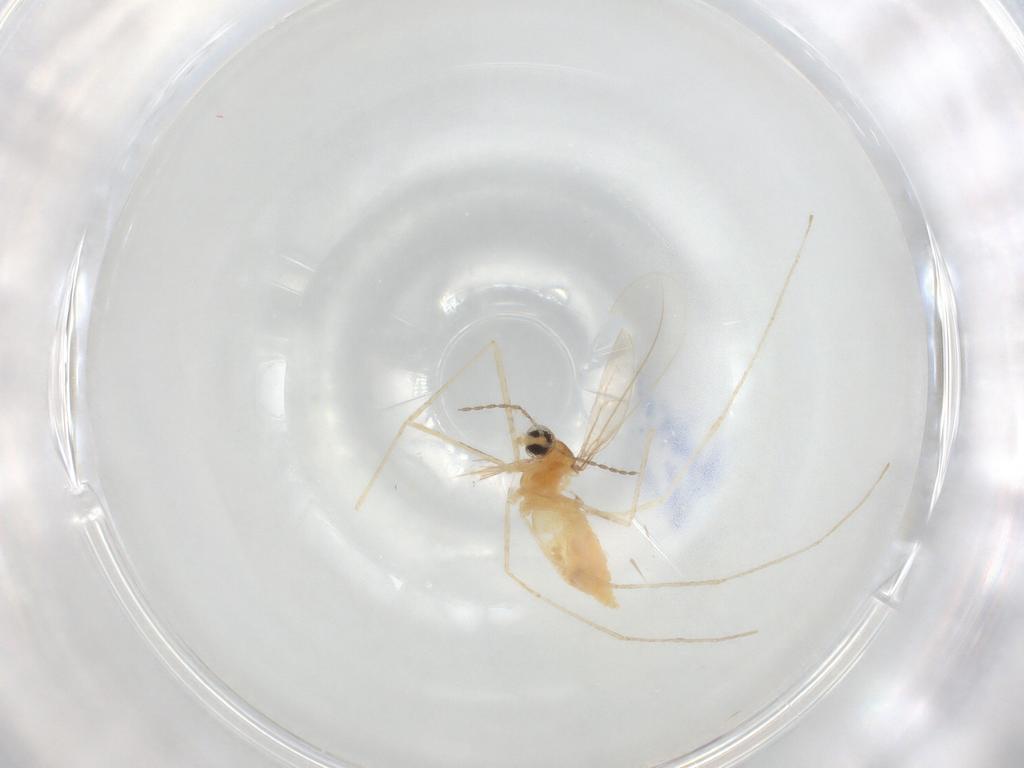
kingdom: Animalia
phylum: Arthropoda
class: Insecta
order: Diptera
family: Cecidomyiidae
